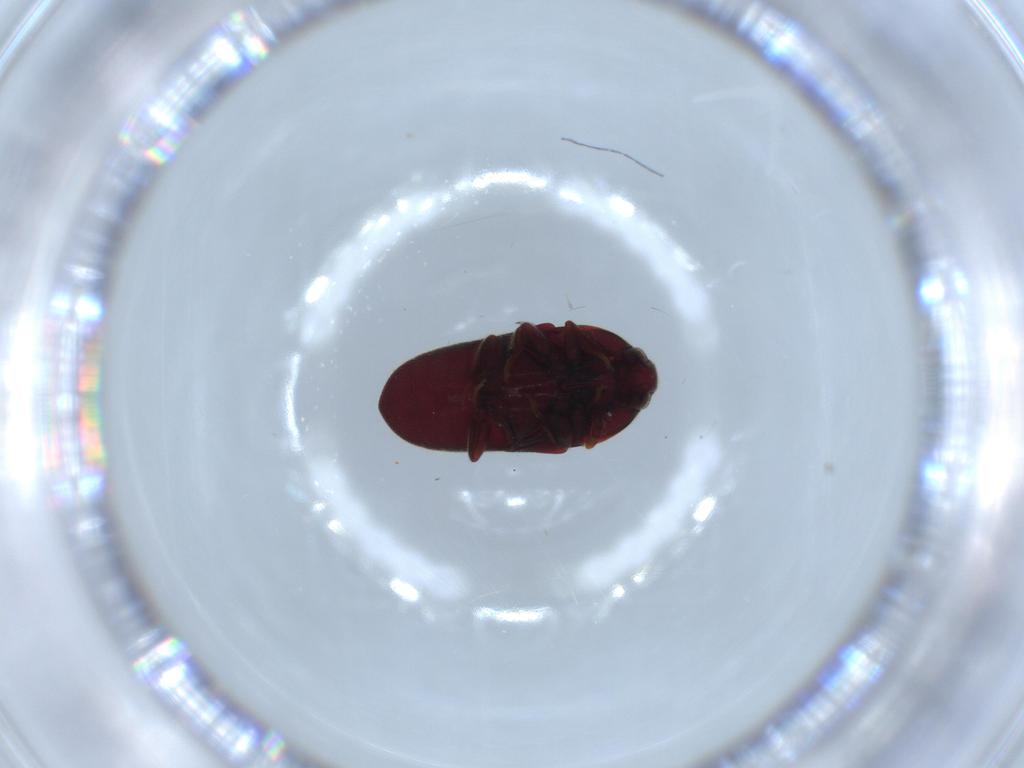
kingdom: Animalia
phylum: Arthropoda
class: Insecta
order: Coleoptera
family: Throscidae
